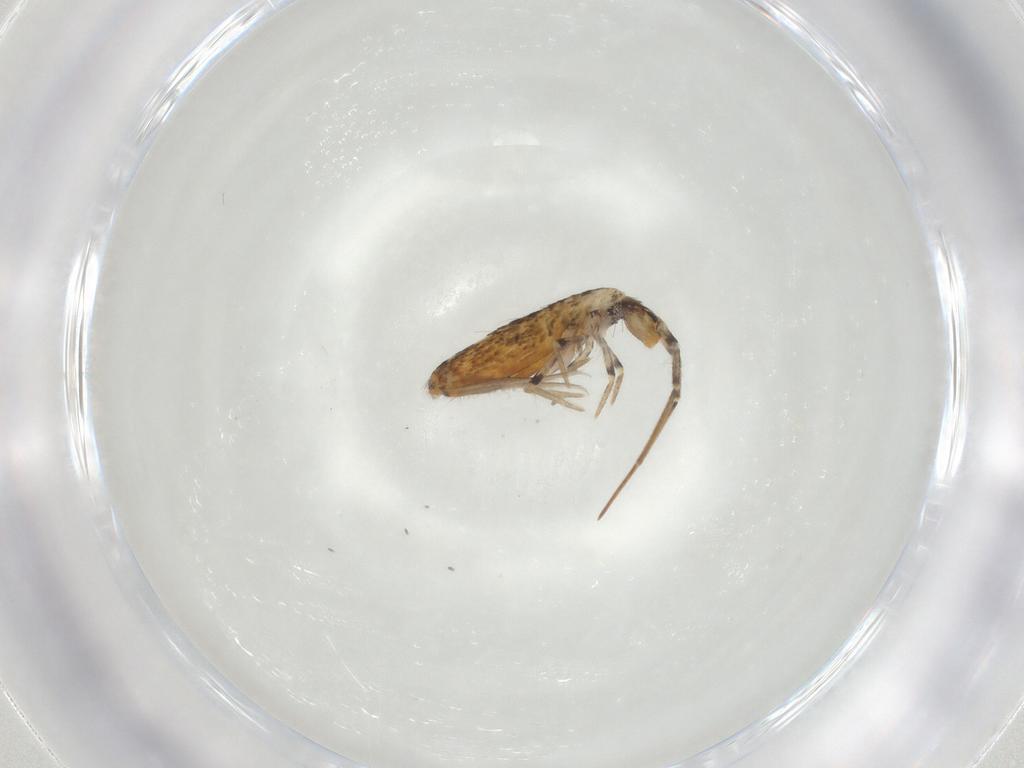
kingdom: Animalia
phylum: Arthropoda
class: Collembola
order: Entomobryomorpha
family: Entomobryidae
